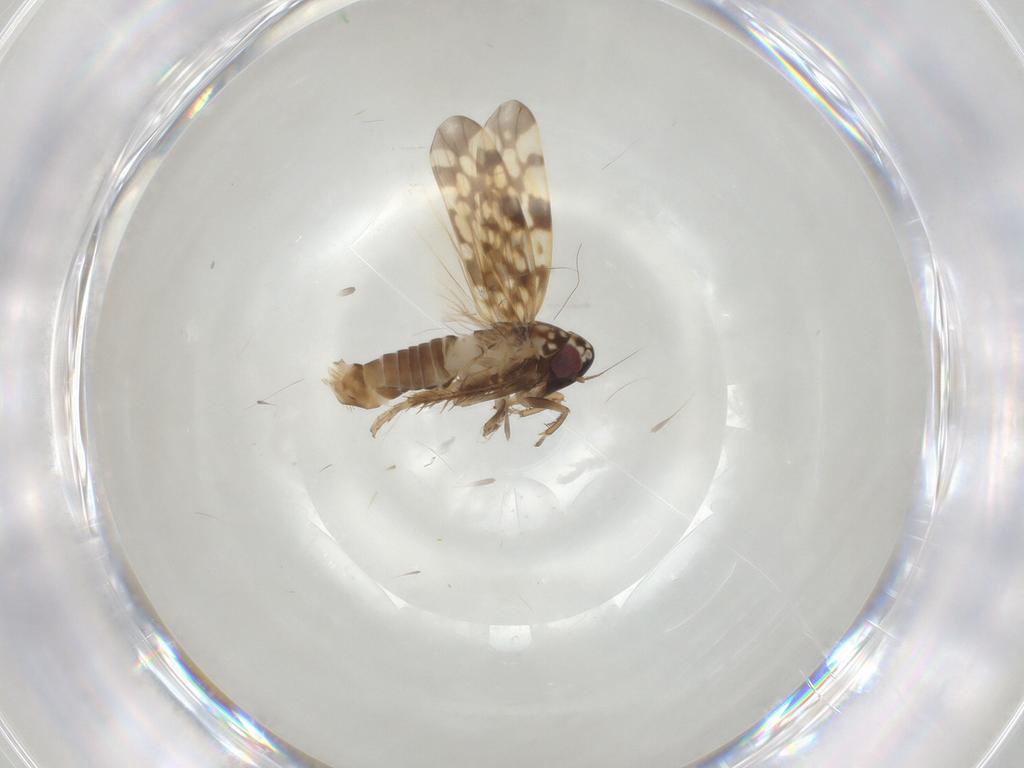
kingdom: Animalia
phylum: Arthropoda
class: Insecta
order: Hemiptera
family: Cicadellidae
